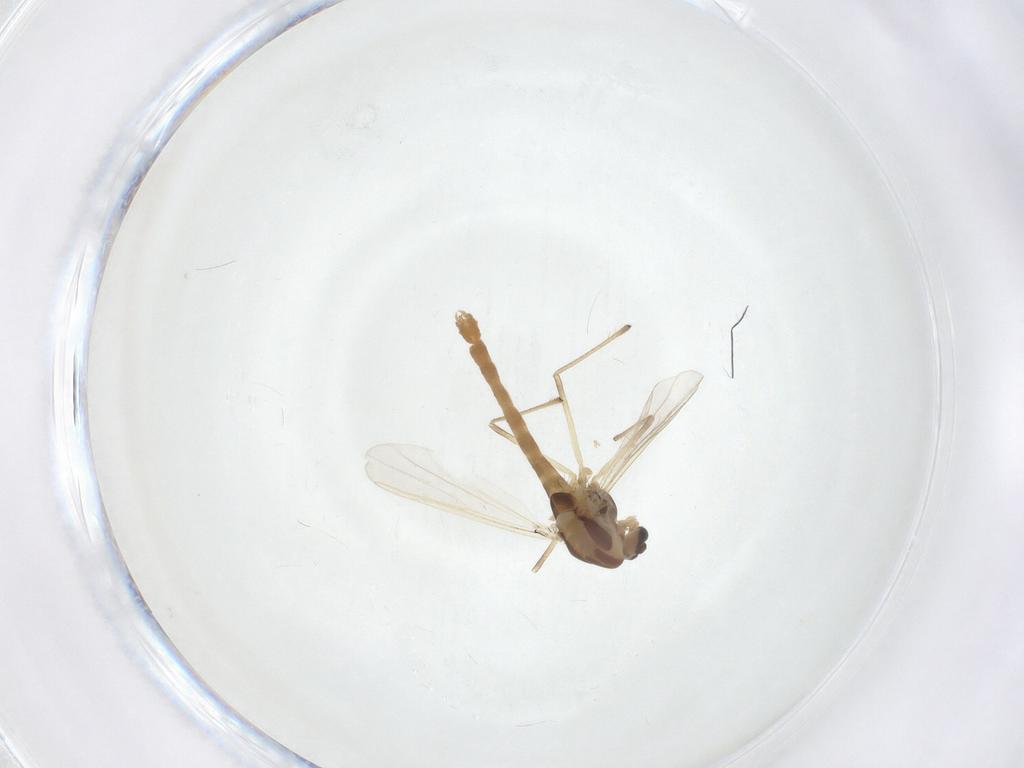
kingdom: Animalia
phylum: Arthropoda
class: Insecta
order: Diptera
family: Chironomidae
